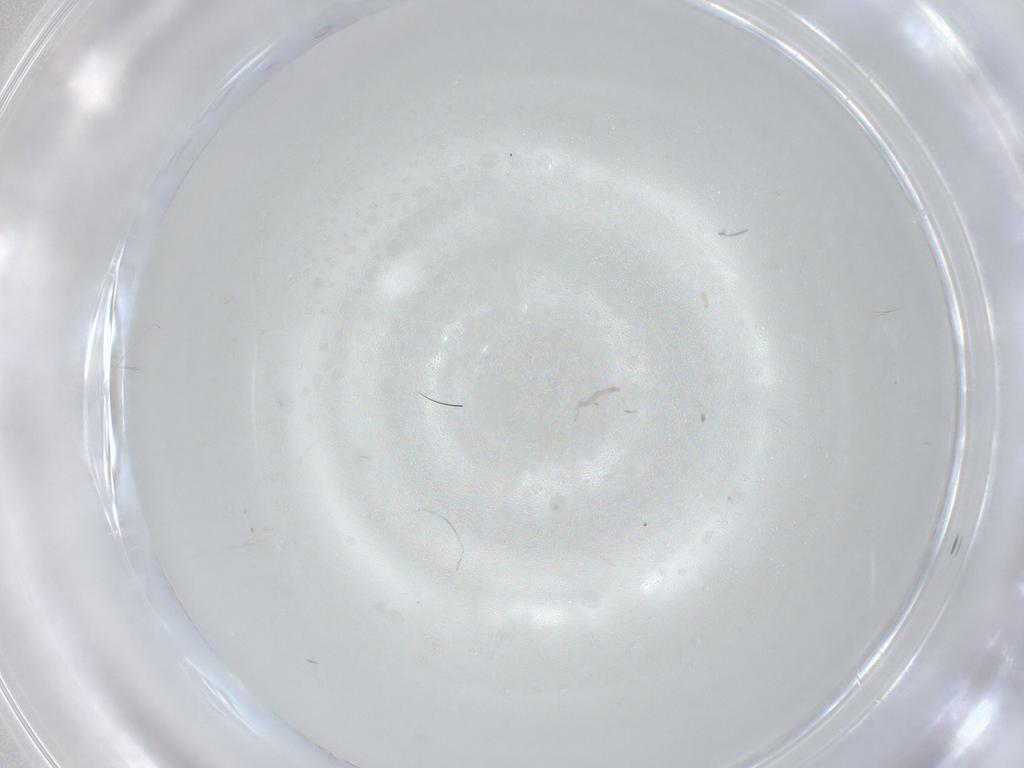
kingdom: Animalia
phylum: Arthropoda
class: Insecta
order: Hymenoptera
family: Trichogrammatidae
